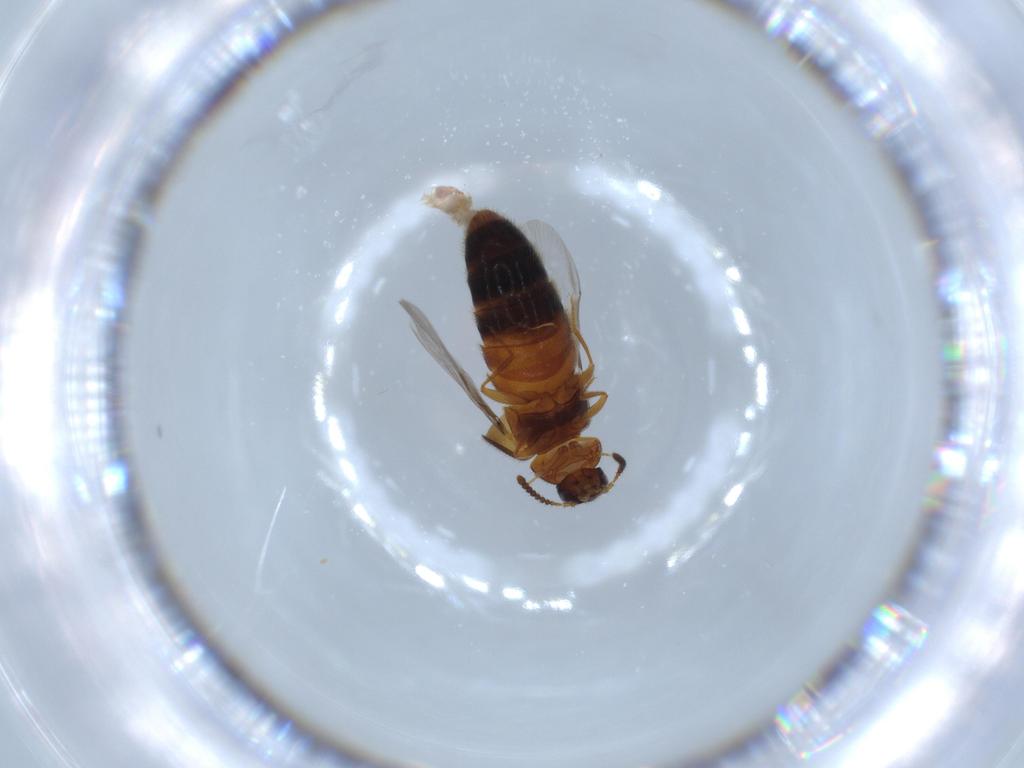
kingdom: Animalia
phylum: Arthropoda
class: Insecta
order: Coleoptera
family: Staphylinidae
